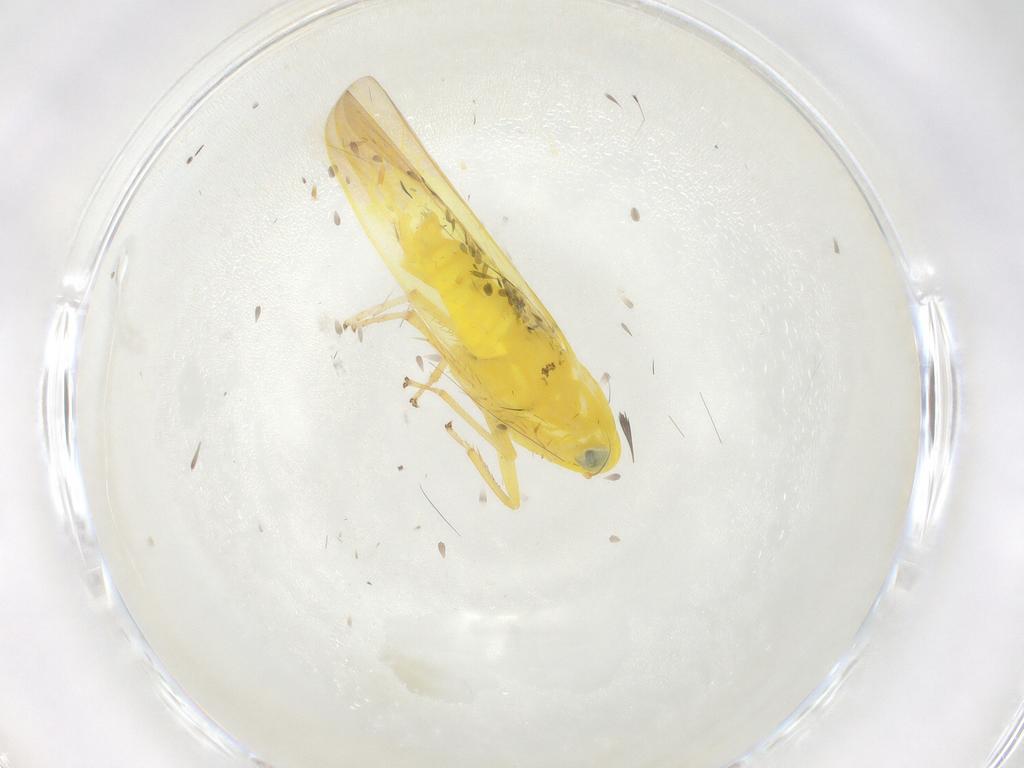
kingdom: Animalia
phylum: Arthropoda
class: Insecta
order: Hemiptera
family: Cicadellidae
